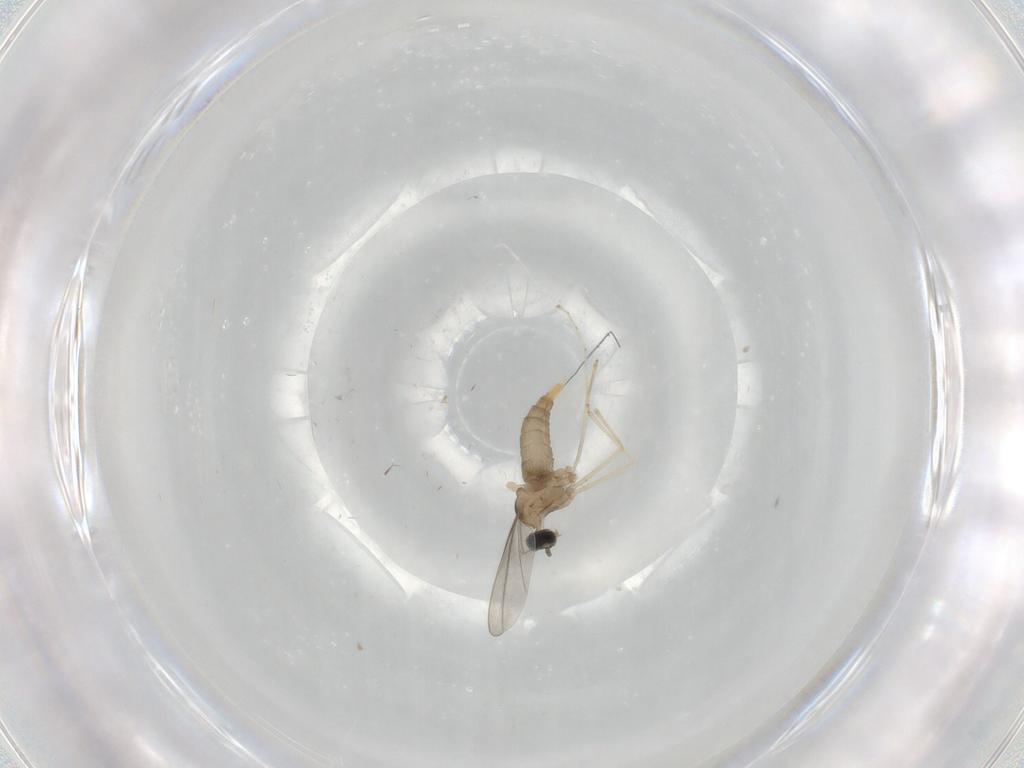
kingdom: Animalia
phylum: Arthropoda
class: Insecta
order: Diptera
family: Cecidomyiidae
